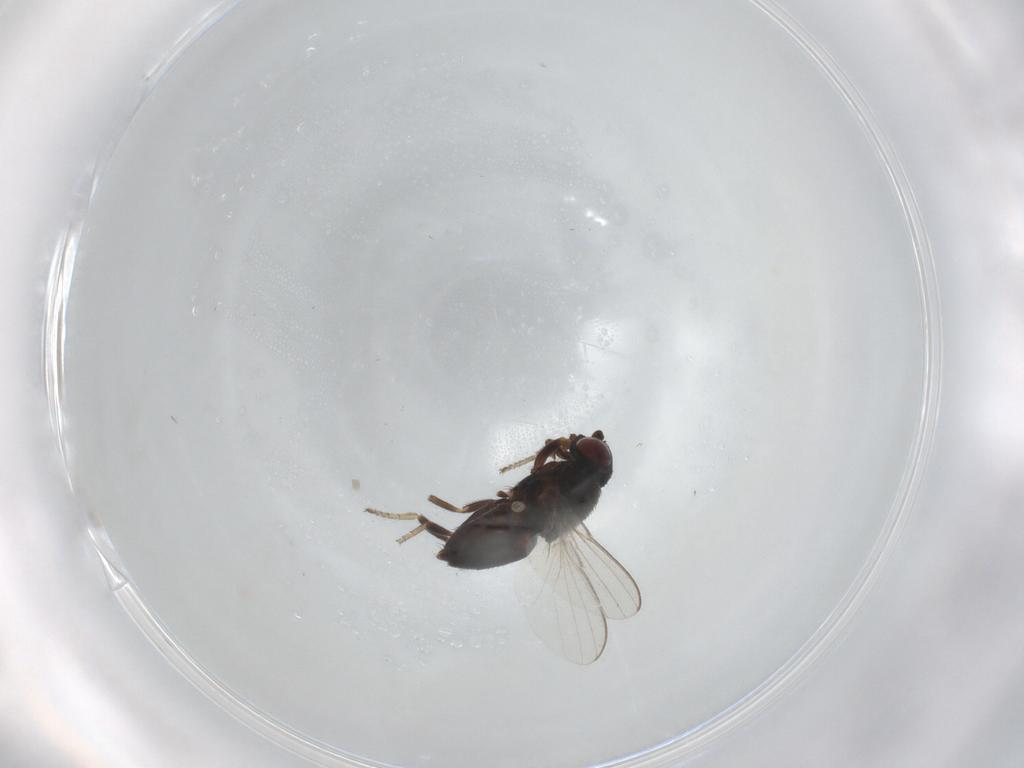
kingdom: Animalia
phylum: Arthropoda
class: Insecta
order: Diptera
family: Milichiidae
